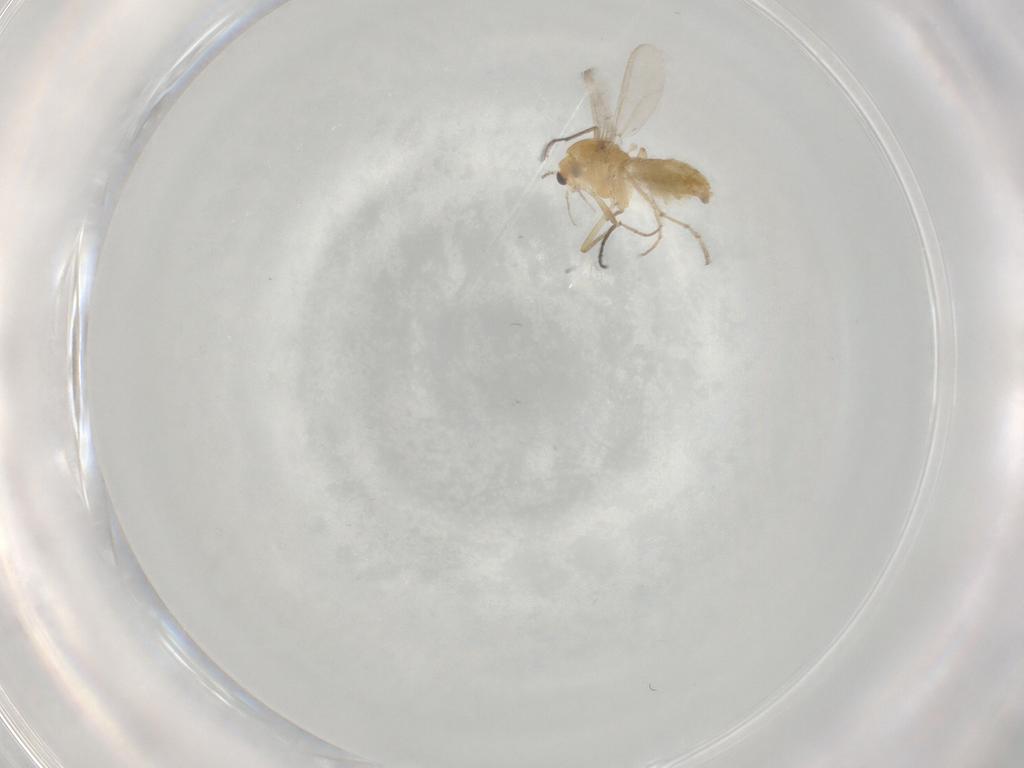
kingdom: Animalia
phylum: Arthropoda
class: Insecta
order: Diptera
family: Chironomidae
